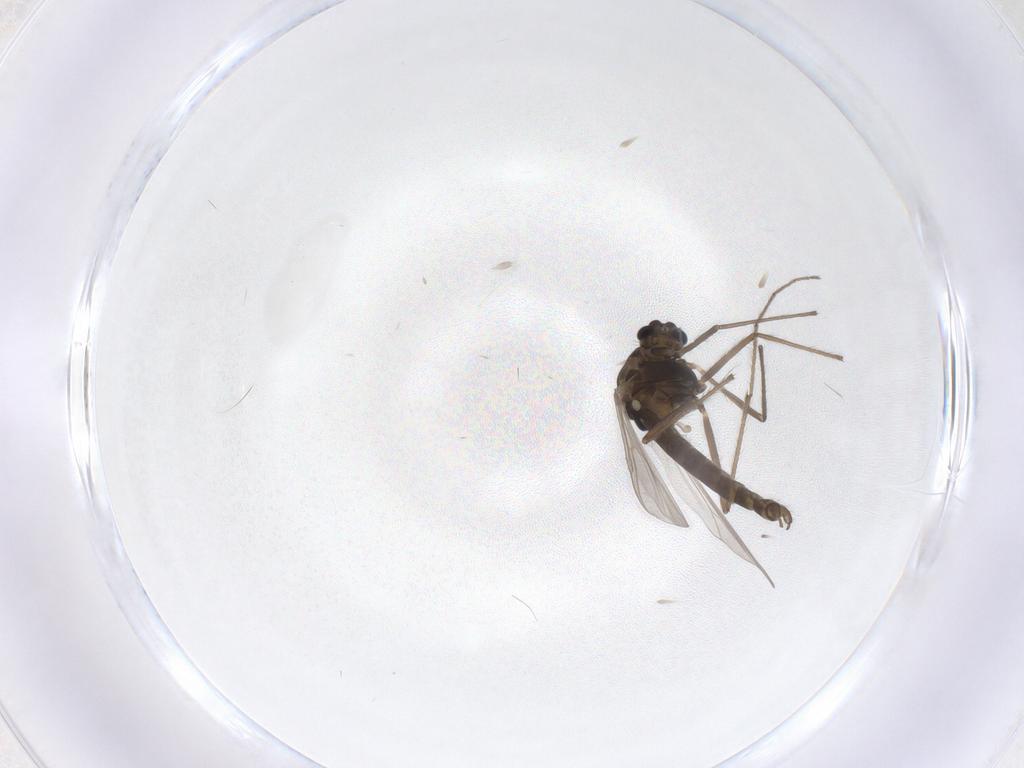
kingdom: Animalia
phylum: Arthropoda
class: Insecta
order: Diptera
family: Chironomidae
